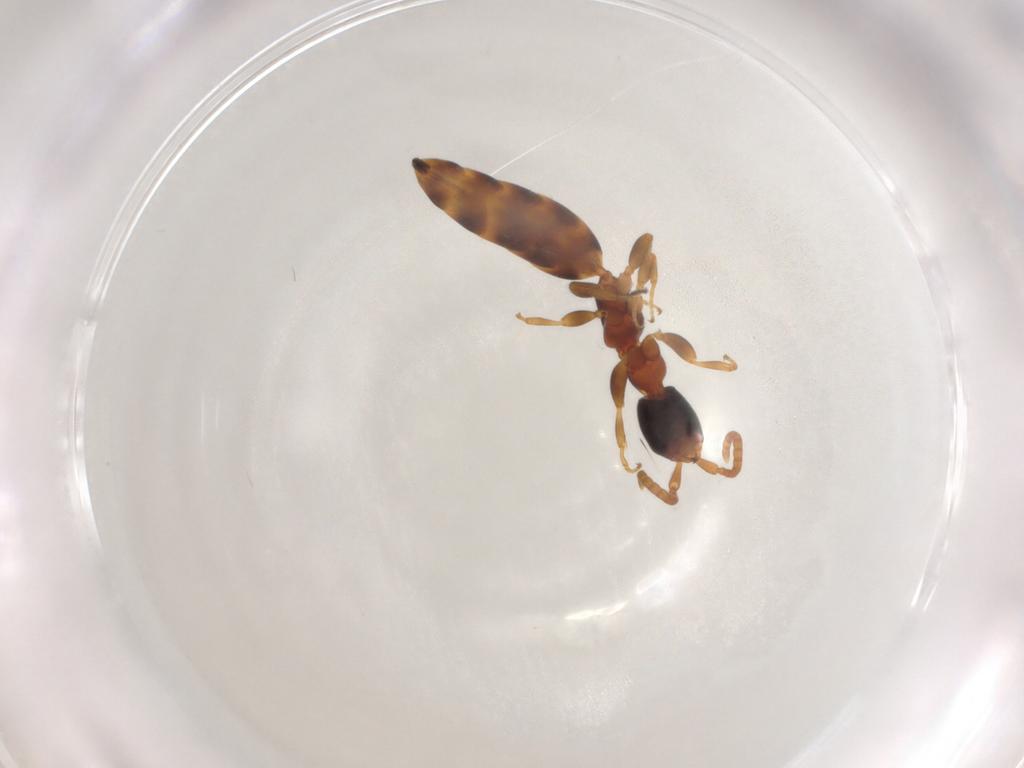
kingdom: Animalia
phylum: Arthropoda
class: Insecta
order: Hymenoptera
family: Bethylidae
